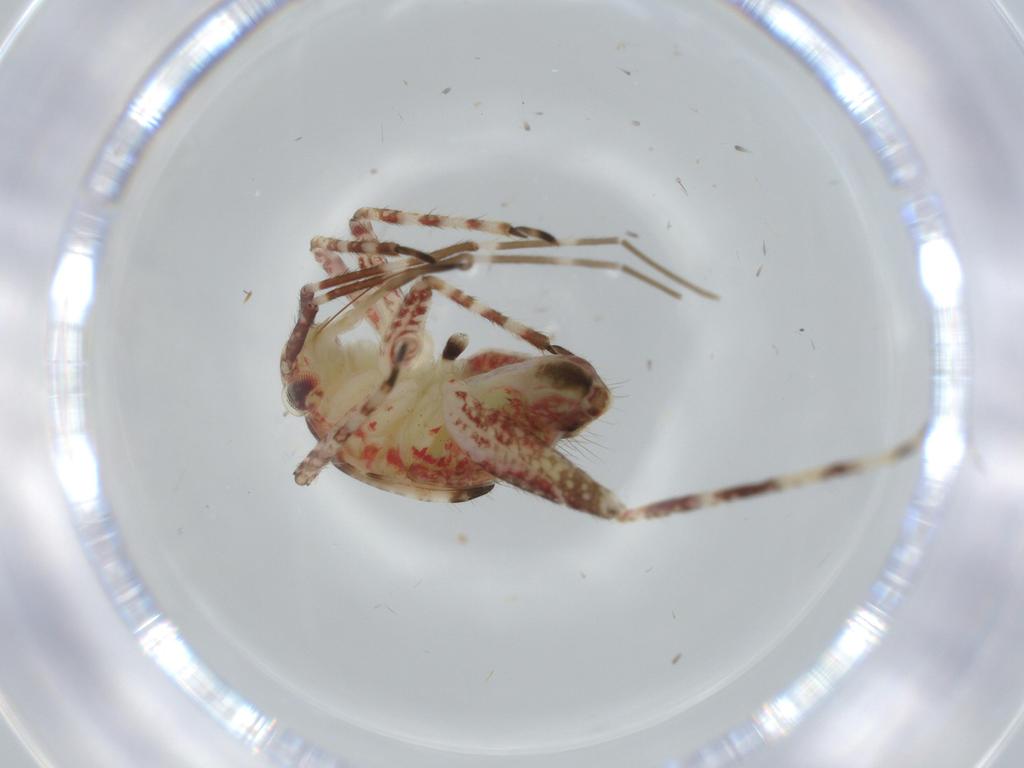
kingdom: Animalia
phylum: Arthropoda
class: Insecta
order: Hemiptera
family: Miridae
